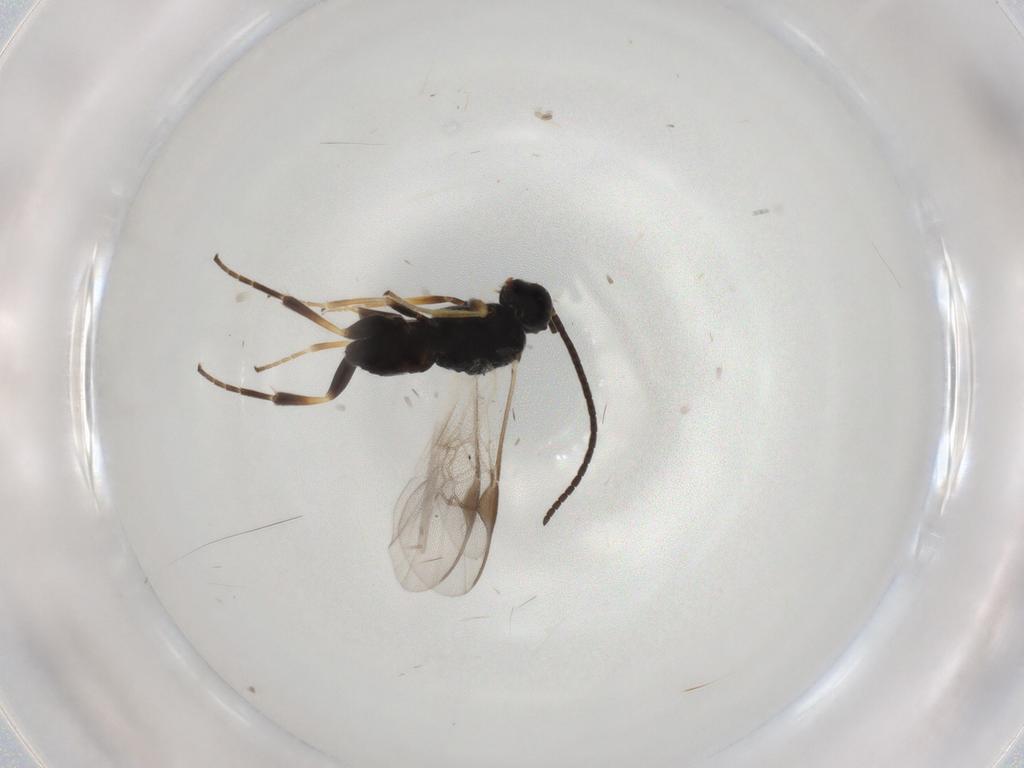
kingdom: Animalia
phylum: Arthropoda
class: Insecta
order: Hymenoptera
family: Braconidae
